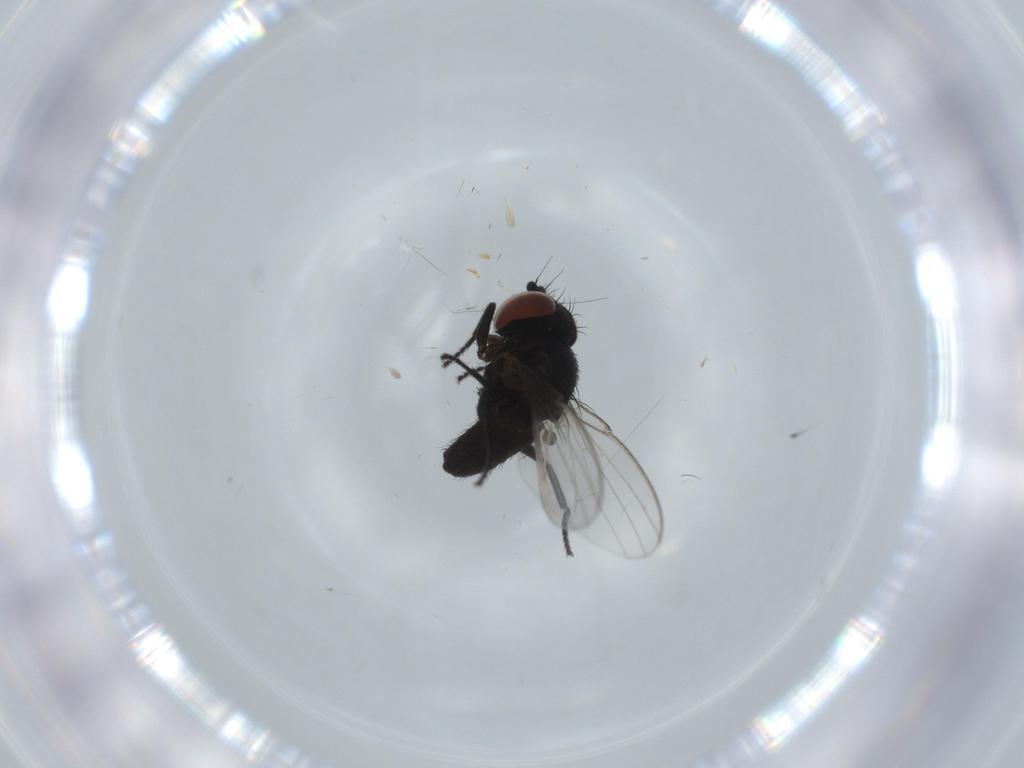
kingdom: Animalia
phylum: Arthropoda
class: Insecta
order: Diptera
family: Milichiidae
